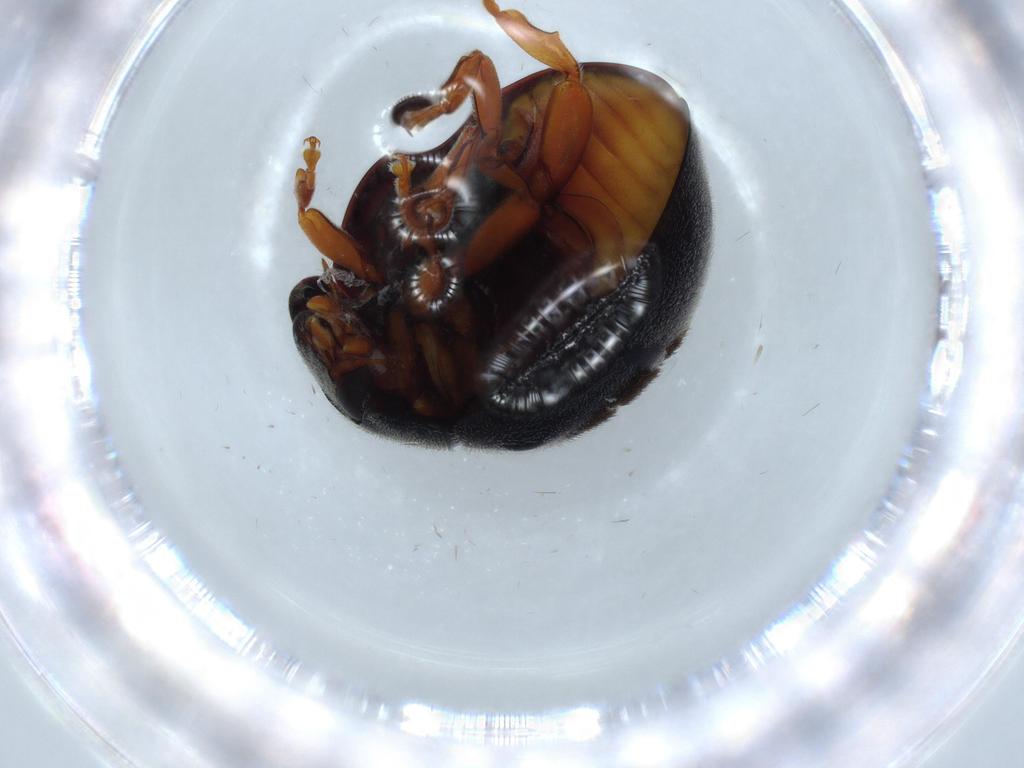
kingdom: Animalia
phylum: Arthropoda
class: Insecta
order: Coleoptera
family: Coccinellidae
